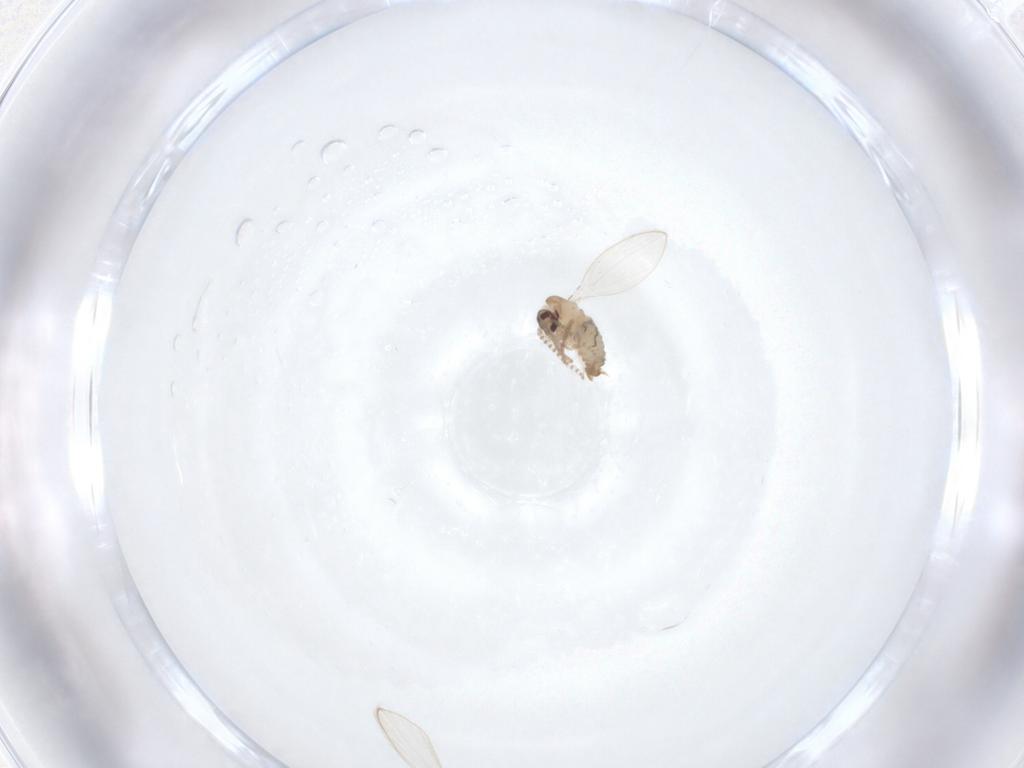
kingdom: Animalia
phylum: Arthropoda
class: Insecta
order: Diptera
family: Psychodidae
